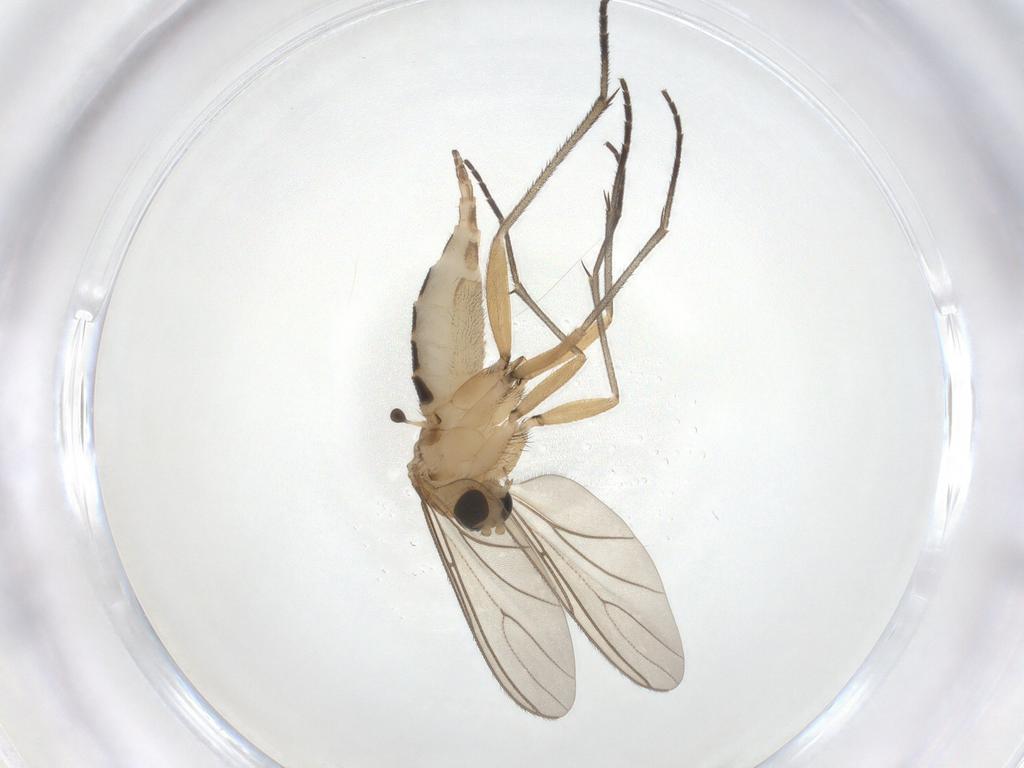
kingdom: Animalia
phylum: Arthropoda
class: Insecta
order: Diptera
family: Sciaridae
